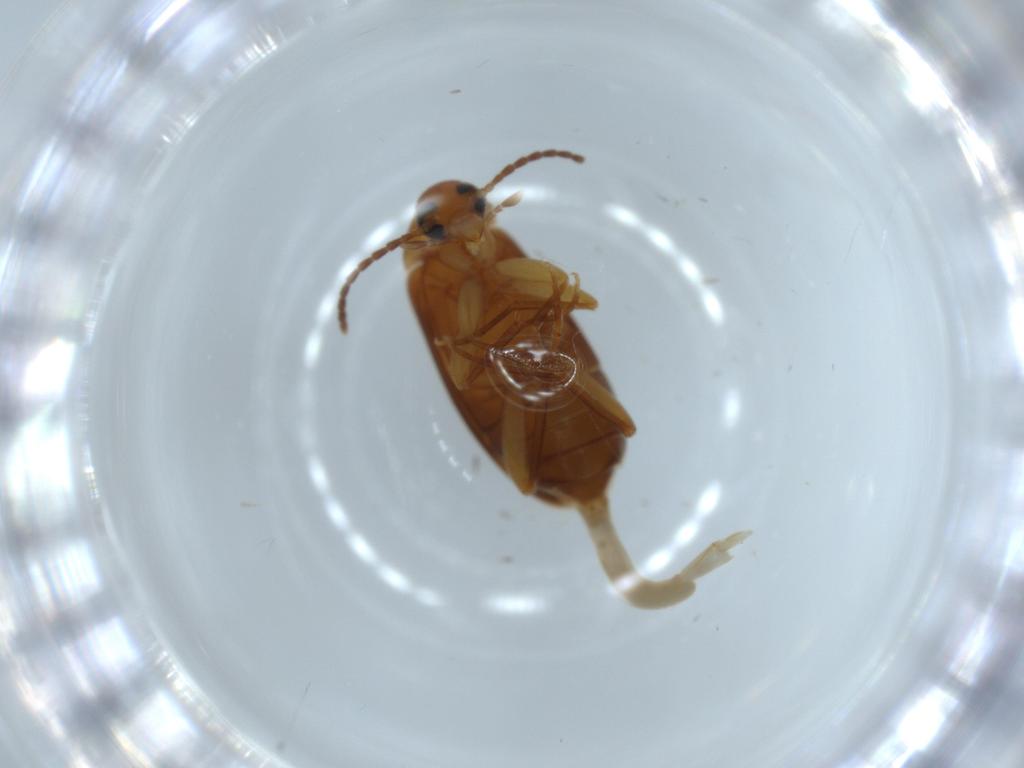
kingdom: Animalia
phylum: Arthropoda
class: Insecta
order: Coleoptera
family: Scraptiidae
